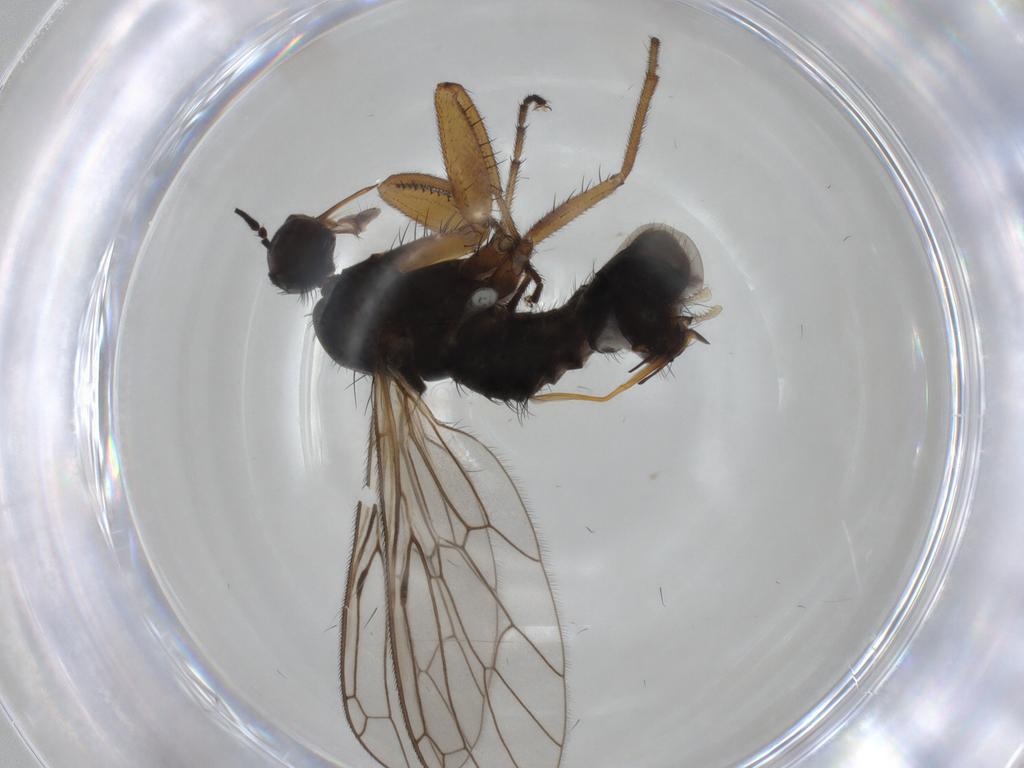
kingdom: Animalia
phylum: Arthropoda
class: Insecta
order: Diptera
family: Empididae
